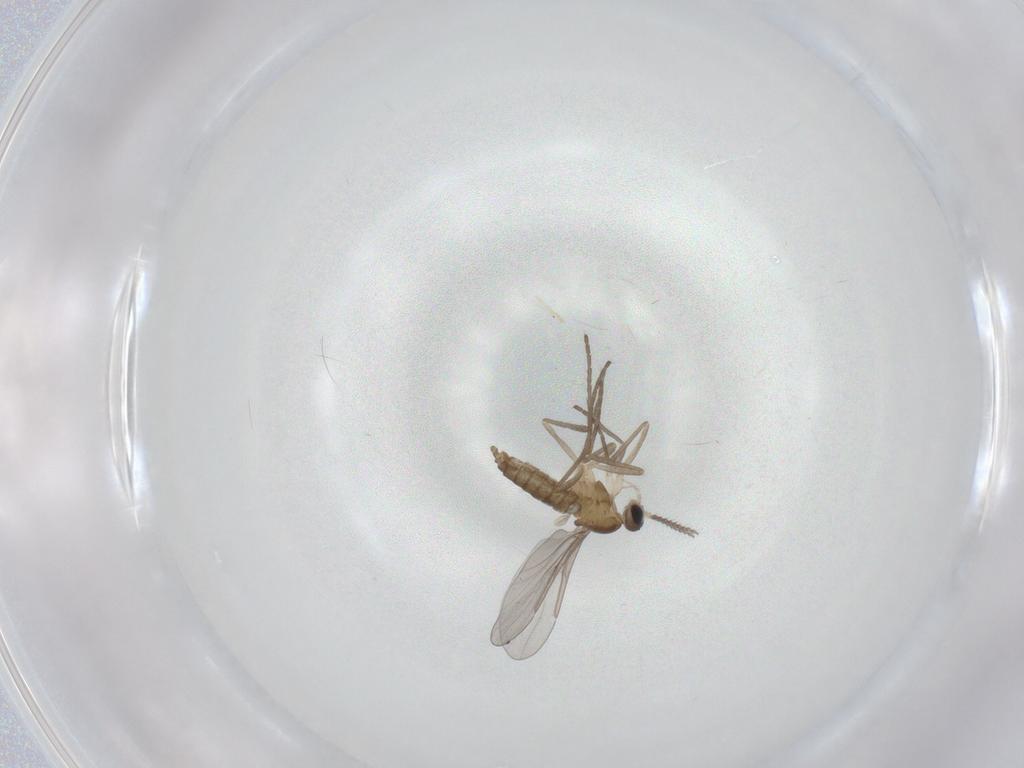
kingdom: Animalia
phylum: Arthropoda
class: Insecta
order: Diptera
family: Cecidomyiidae
